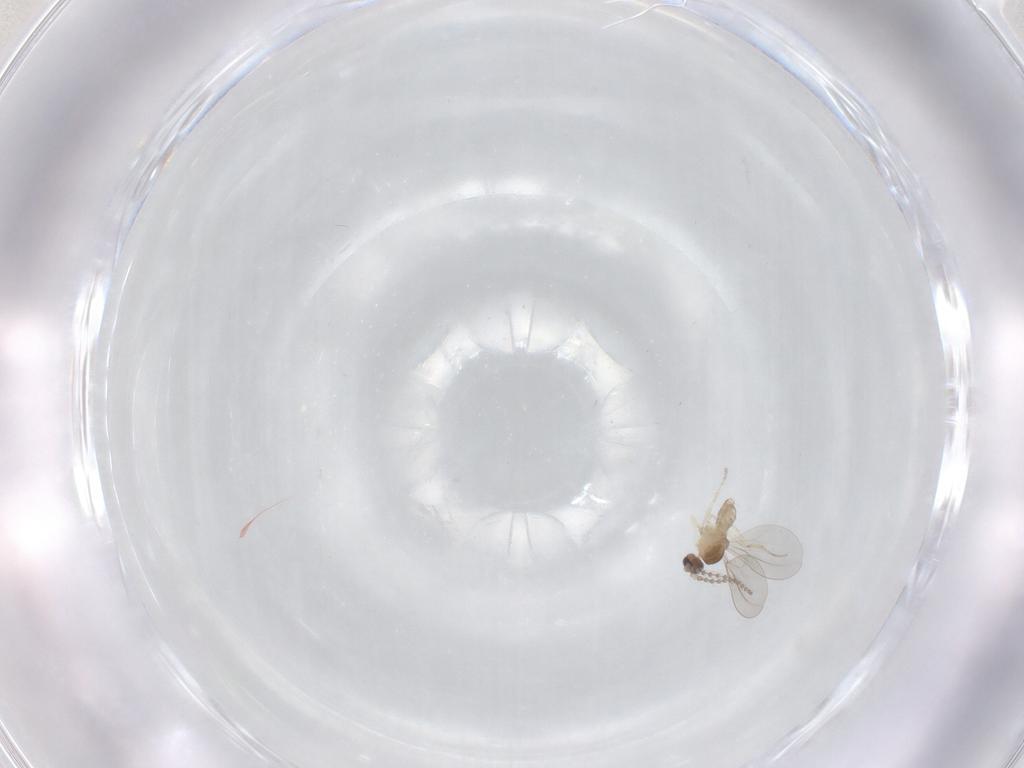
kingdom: Animalia
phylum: Arthropoda
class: Insecta
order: Diptera
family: Cecidomyiidae
